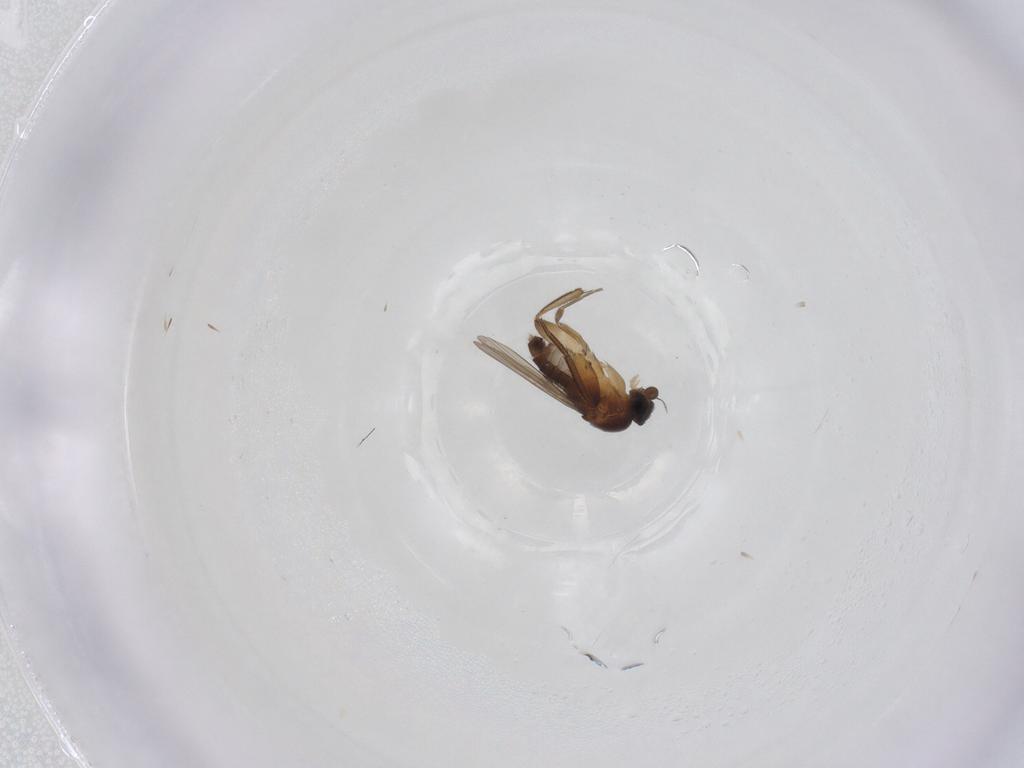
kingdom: Animalia
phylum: Arthropoda
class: Insecta
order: Diptera
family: Phoridae
